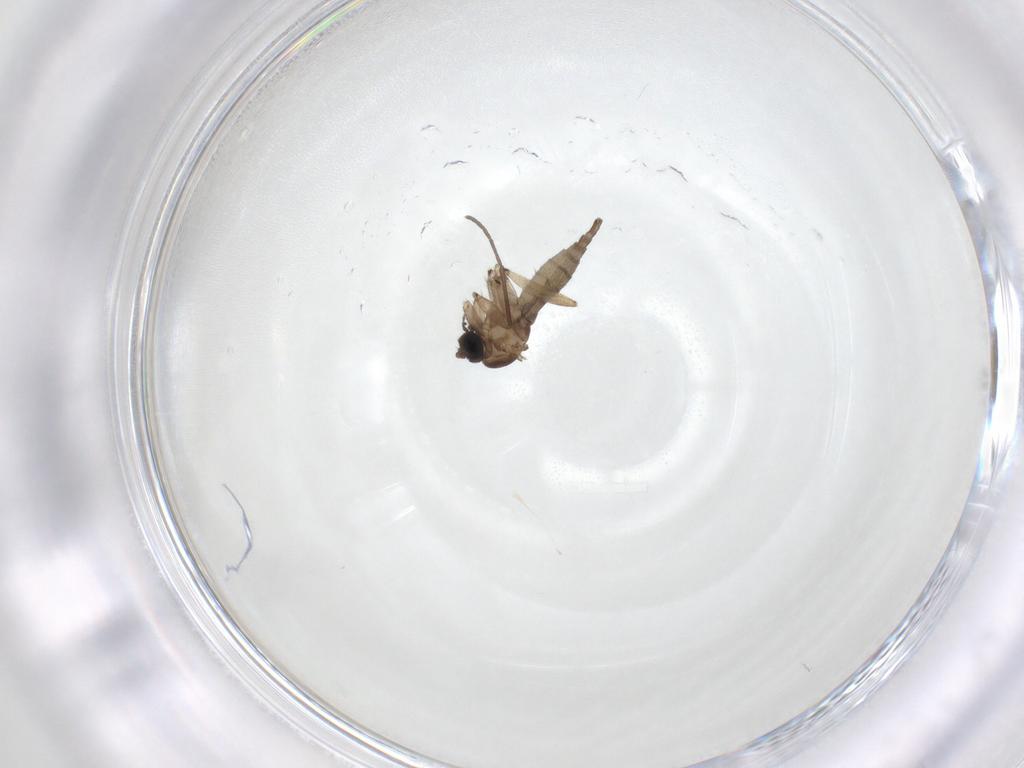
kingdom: Animalia
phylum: Arthropoda
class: Insecta
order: Diptera
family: Sciaridae
